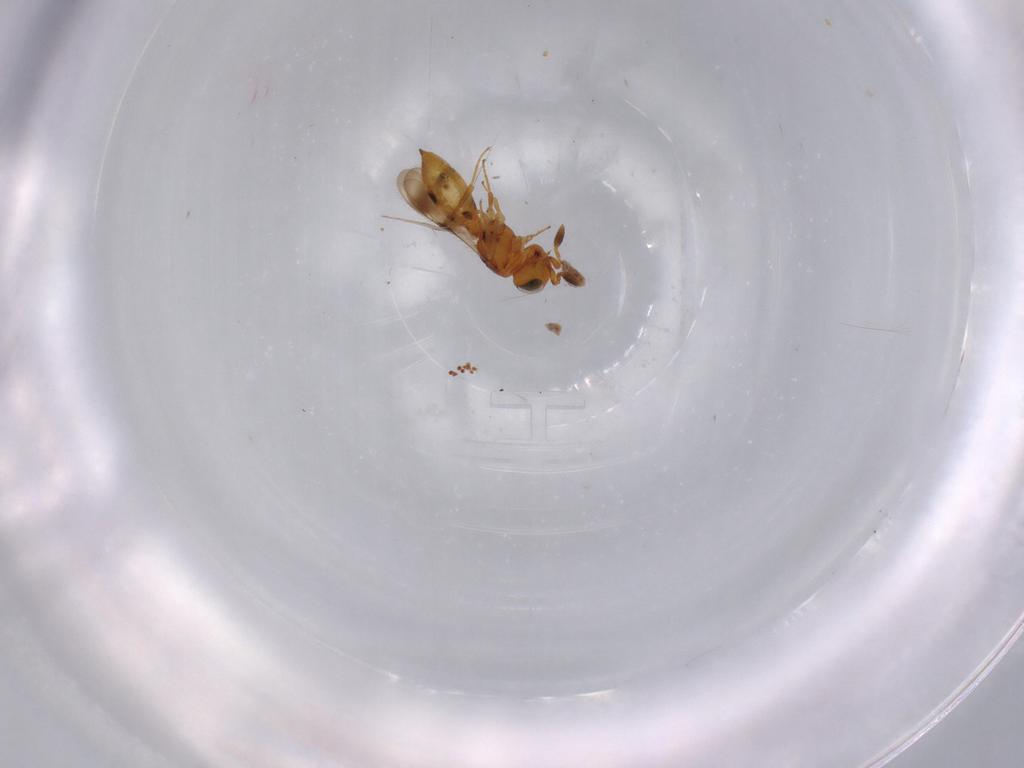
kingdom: Animalia
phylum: Arthropoda
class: Insecta
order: Hymenoptera
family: Scelionidae
